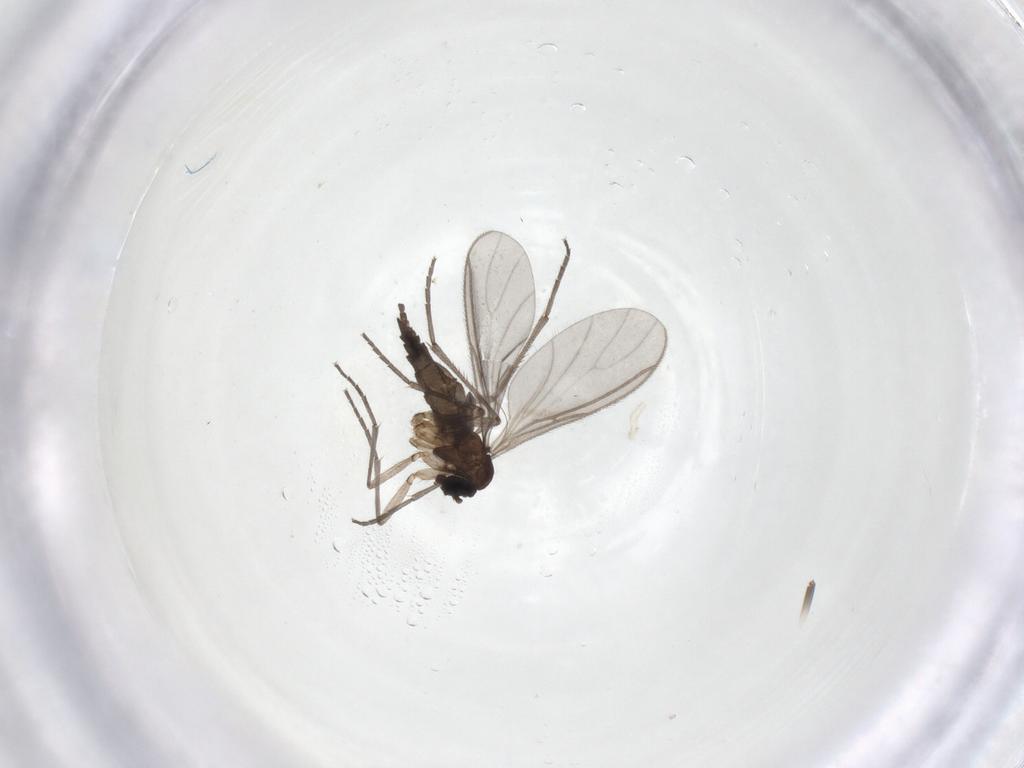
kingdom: Animalia
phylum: Arthropoda
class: Insecta
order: Diptera
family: Sciaridae
